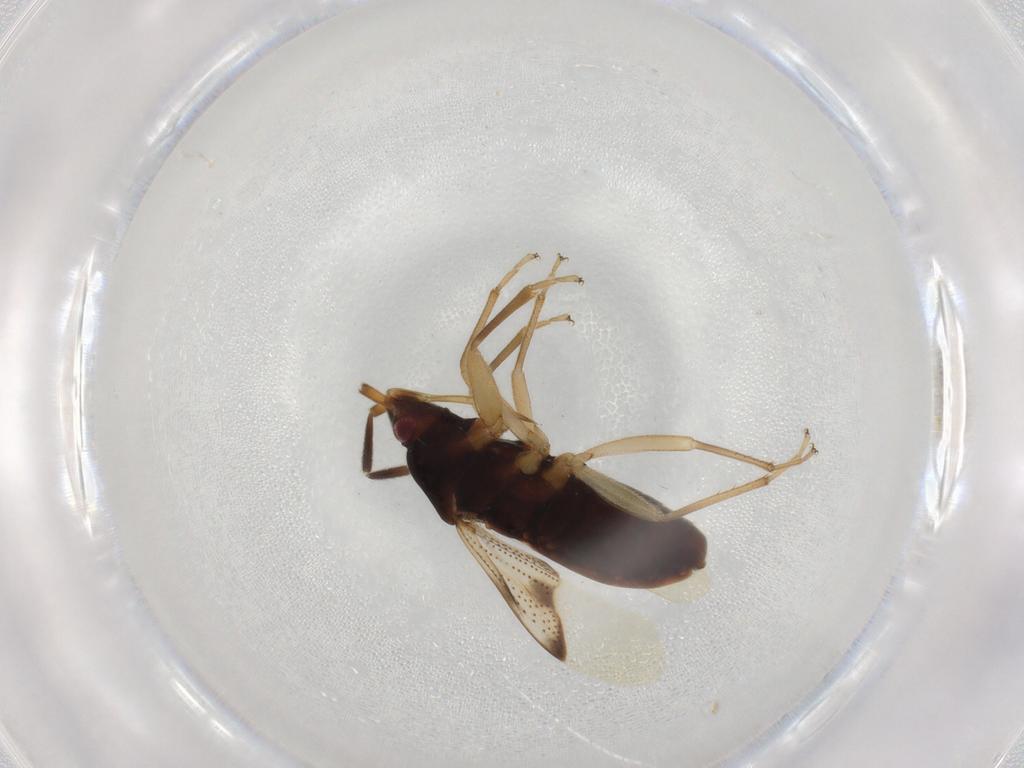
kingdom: Animalia
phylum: Arthropoda
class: Insecta
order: Hemiptera
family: Rhyparochromidae
